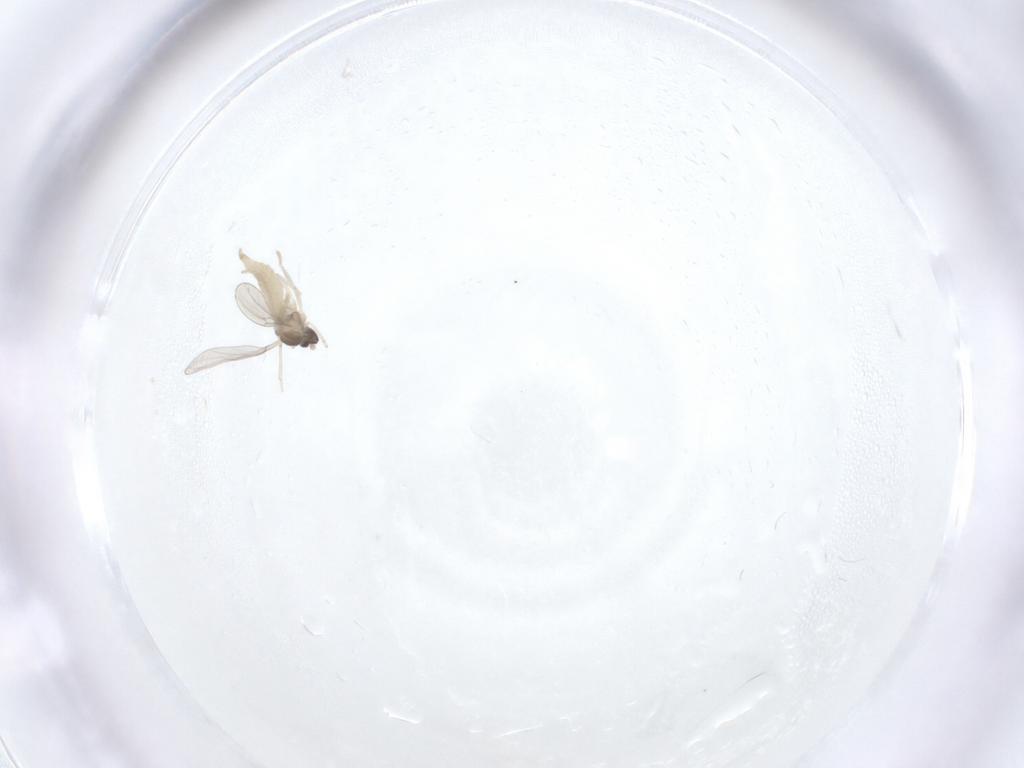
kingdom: Animalia
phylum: Arthropoda
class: Insecta
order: Diptera
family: Cecidomyiidae
